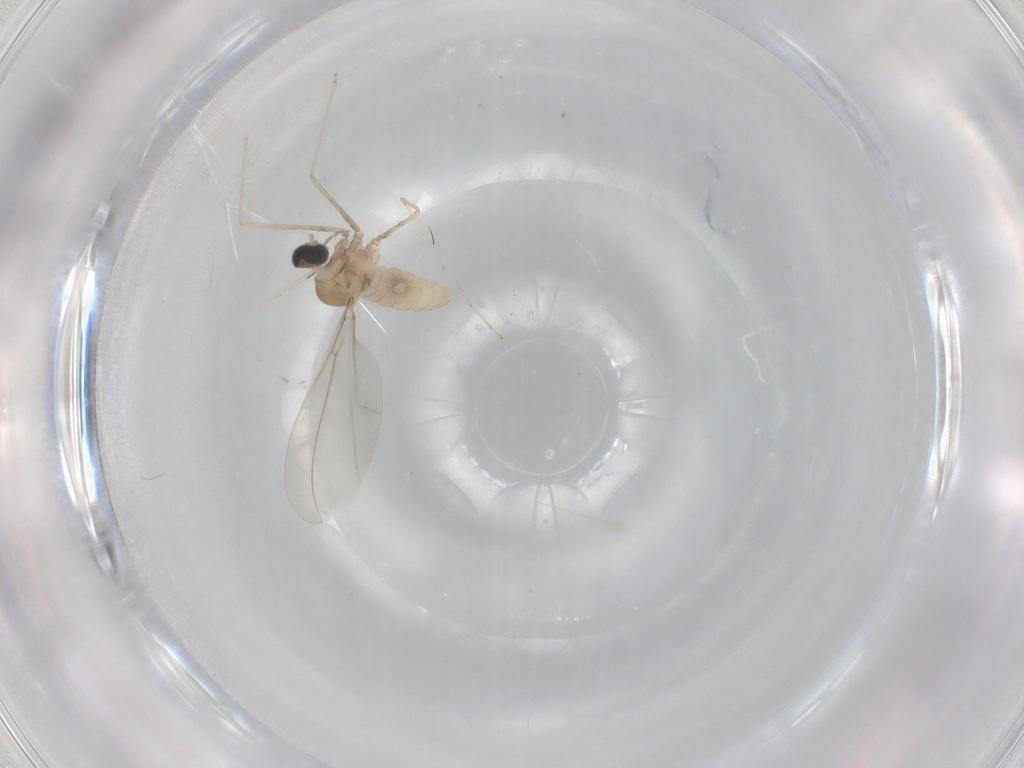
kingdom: Animalia
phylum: Arthropoda
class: Insecta
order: Diptera
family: Cecidomyiidae
